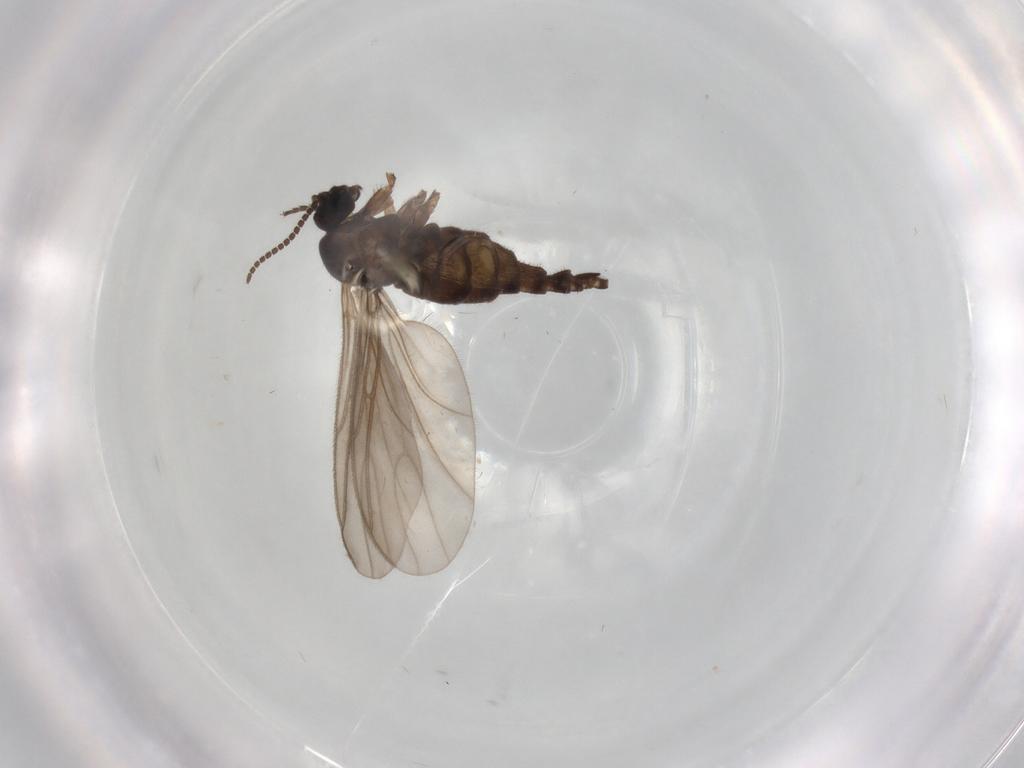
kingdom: Animalia
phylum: Arthropoda
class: Insecta
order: Diptera
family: Sciaridae
